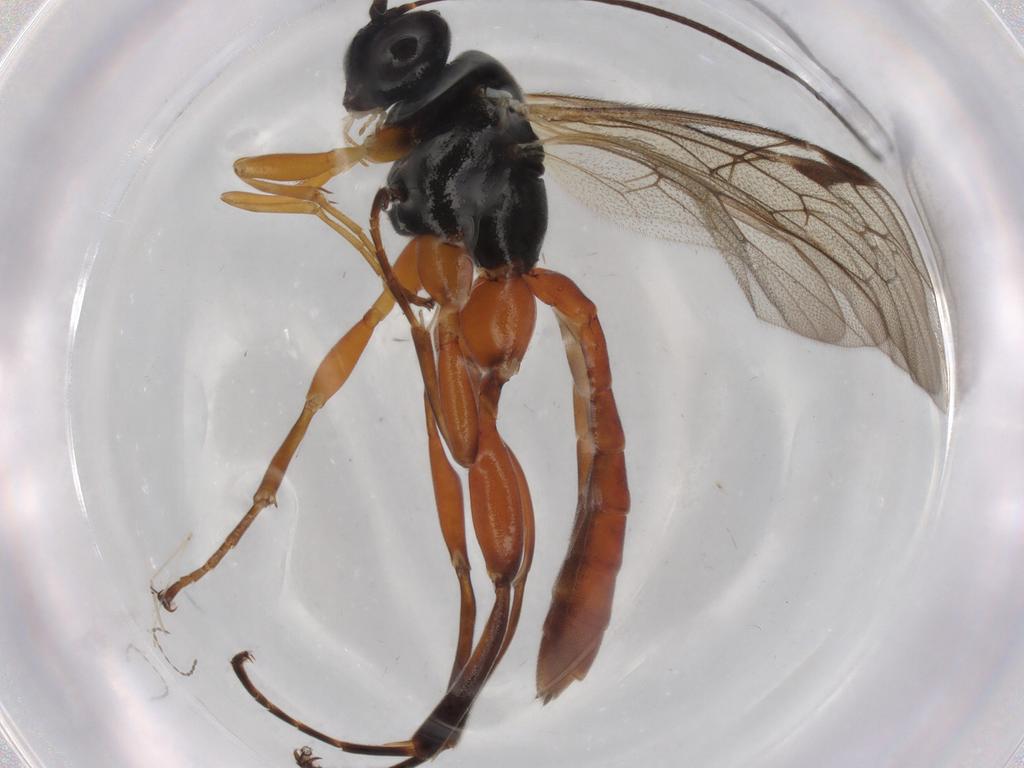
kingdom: Animalia
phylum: Arthropoda
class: Insecta
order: Hymenoptera
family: Ichneumonidae
